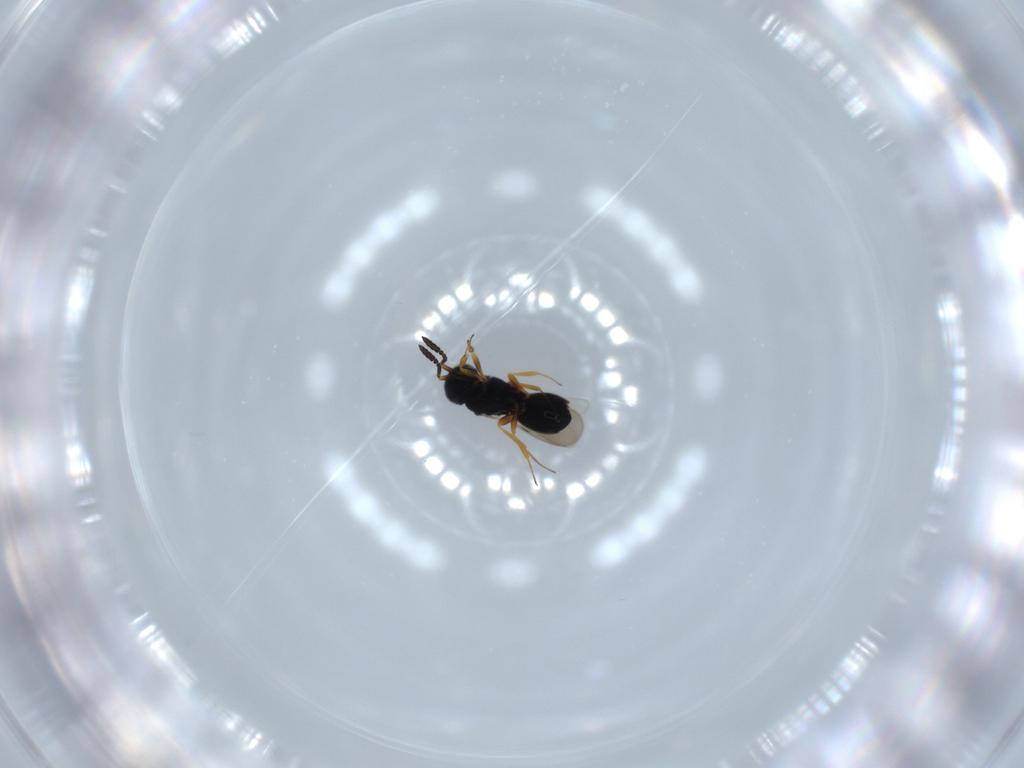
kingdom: Animalia
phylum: Arthropoda
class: Insecta
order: Hymenoptera
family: Scelionidae
